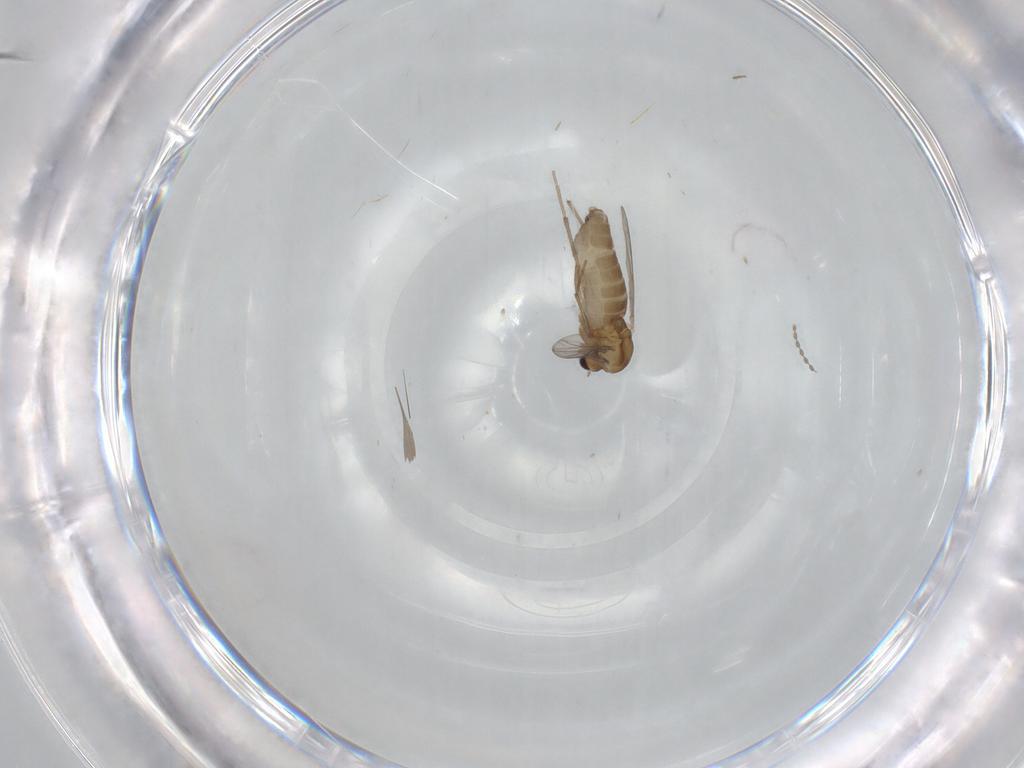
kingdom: Animalia
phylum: Arthropoda
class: Insecta
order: Diptera
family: Chironomidae
